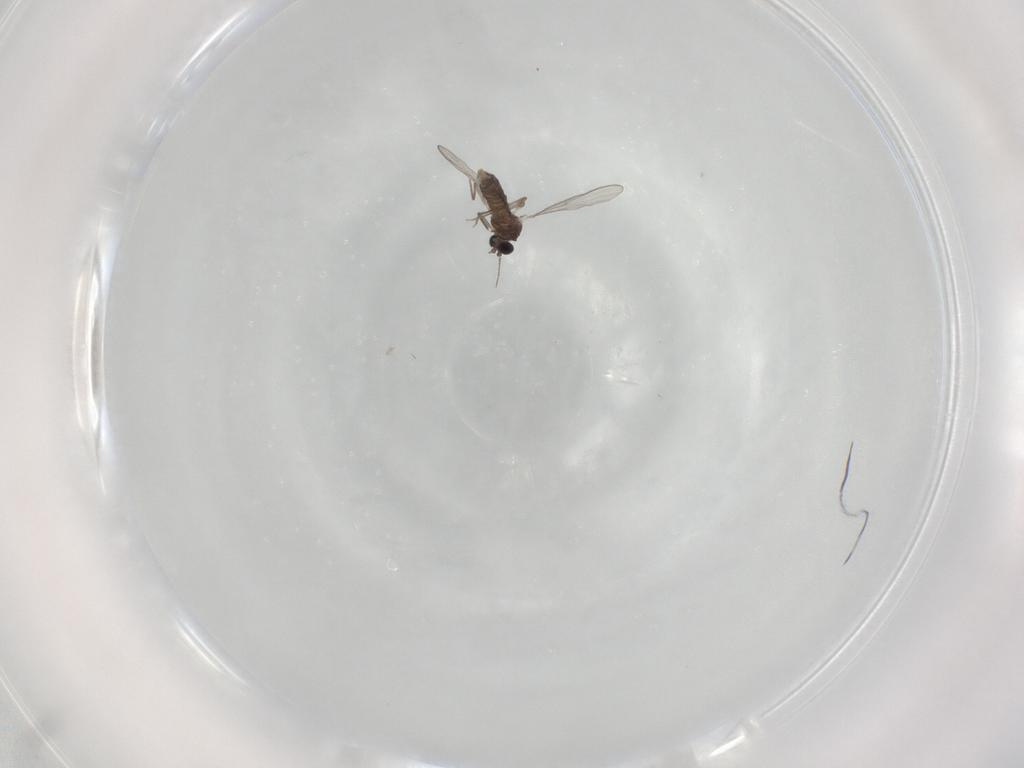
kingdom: Animalia
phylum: Arthropoda
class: Insecta
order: Diptera
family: Chironomidae
